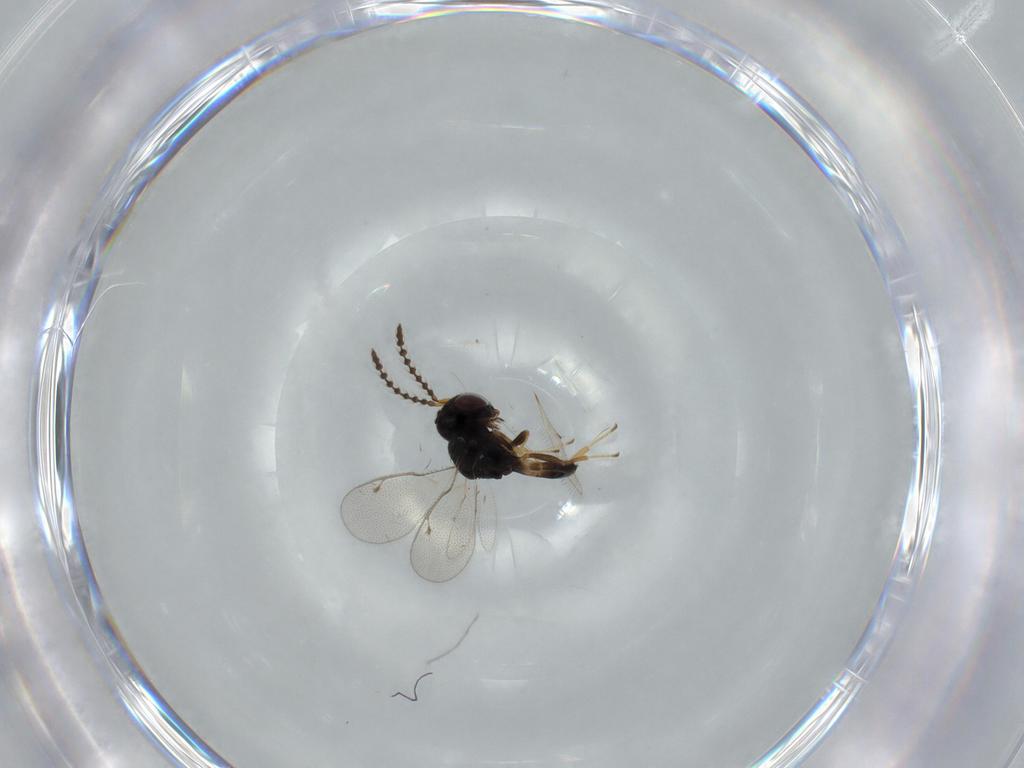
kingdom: Animalia
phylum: Arthropoda
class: Insecta
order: Hymenoptera
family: Pteromalidae
